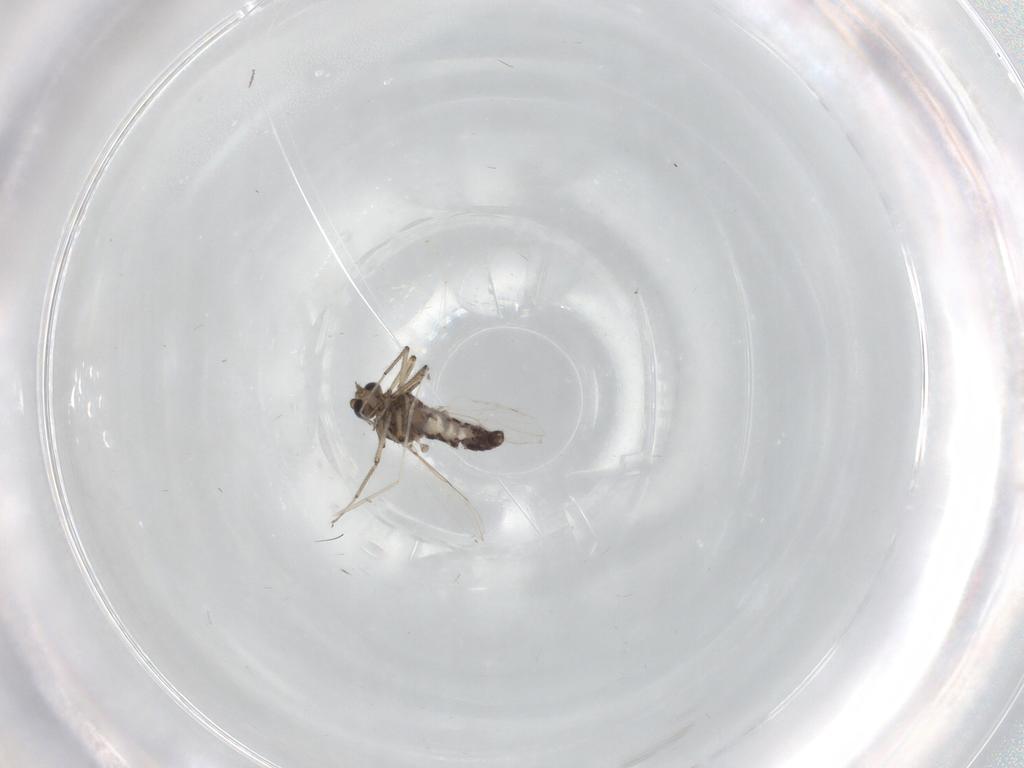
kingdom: Animalia
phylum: Arthropoda
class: Insecta
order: Diptera
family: Ceratopogonidae
